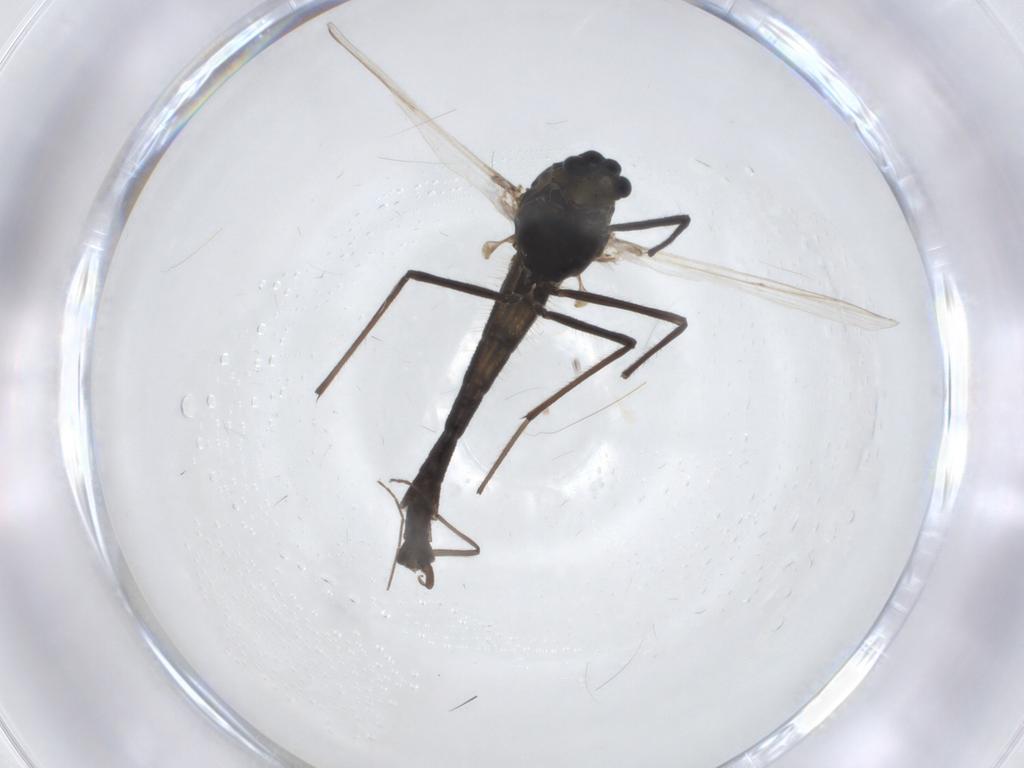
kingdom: Animalia
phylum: Arthropoda
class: Insecta
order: Diptera
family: Chironomidae
